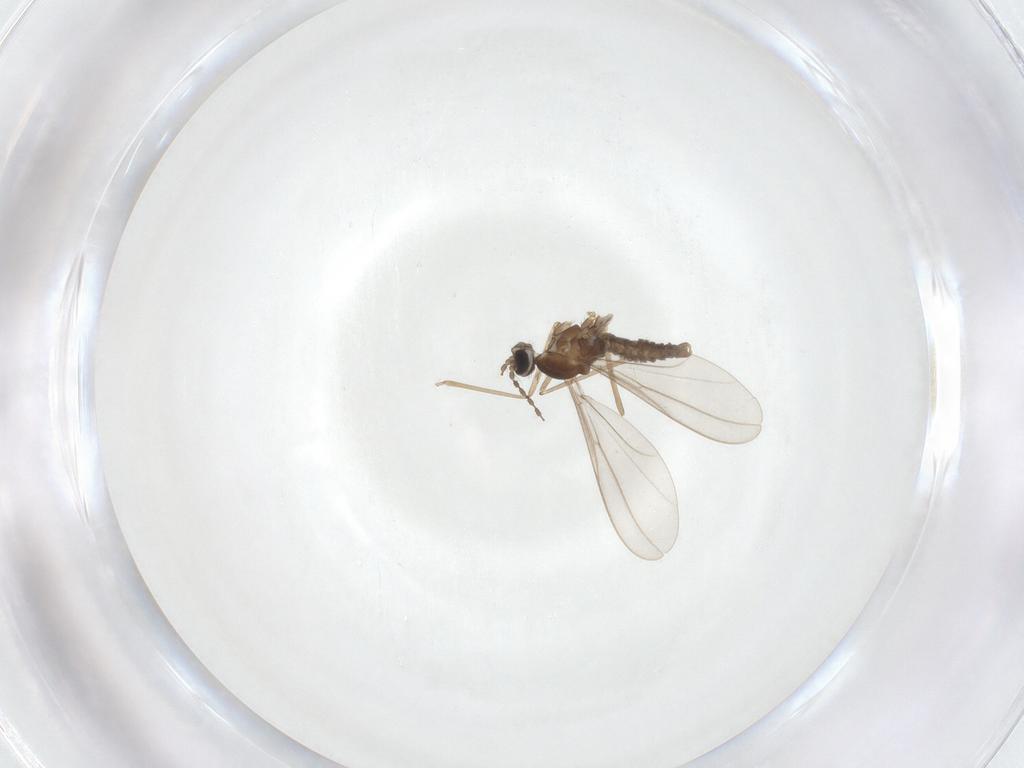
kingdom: Animalia
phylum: Arthropoda
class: Insecta
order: Diptera
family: Cecidomyiidae
